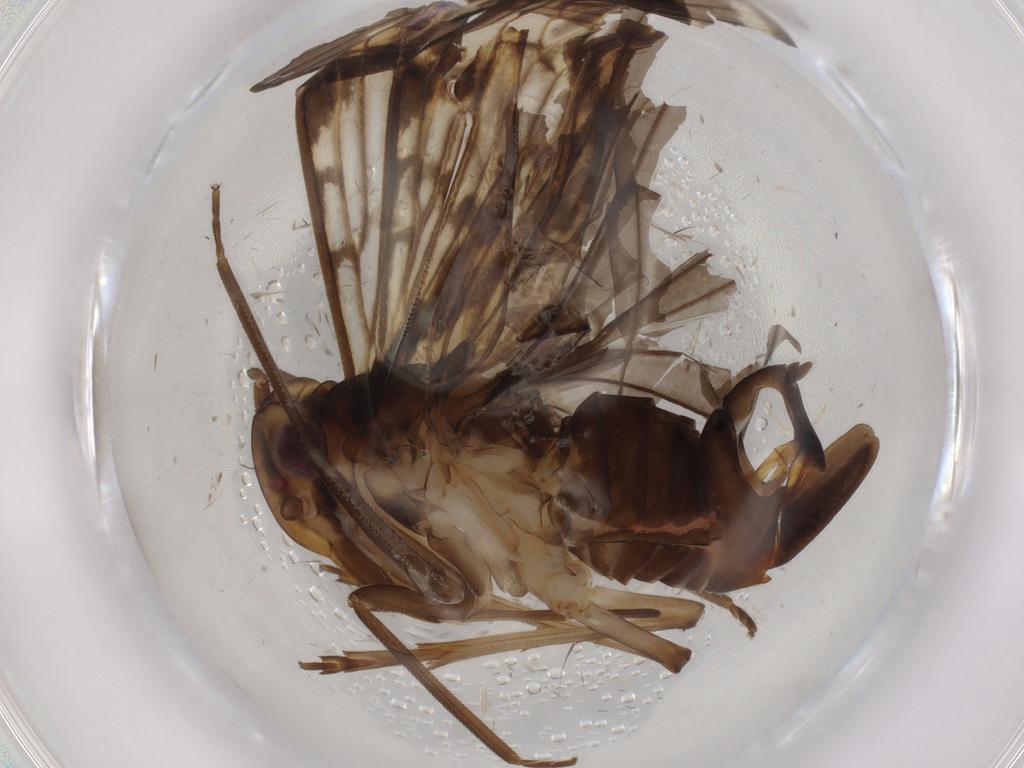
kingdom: Animalia
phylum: Arthropoda
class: Insecta
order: Hemiptera
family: Cixiidae
